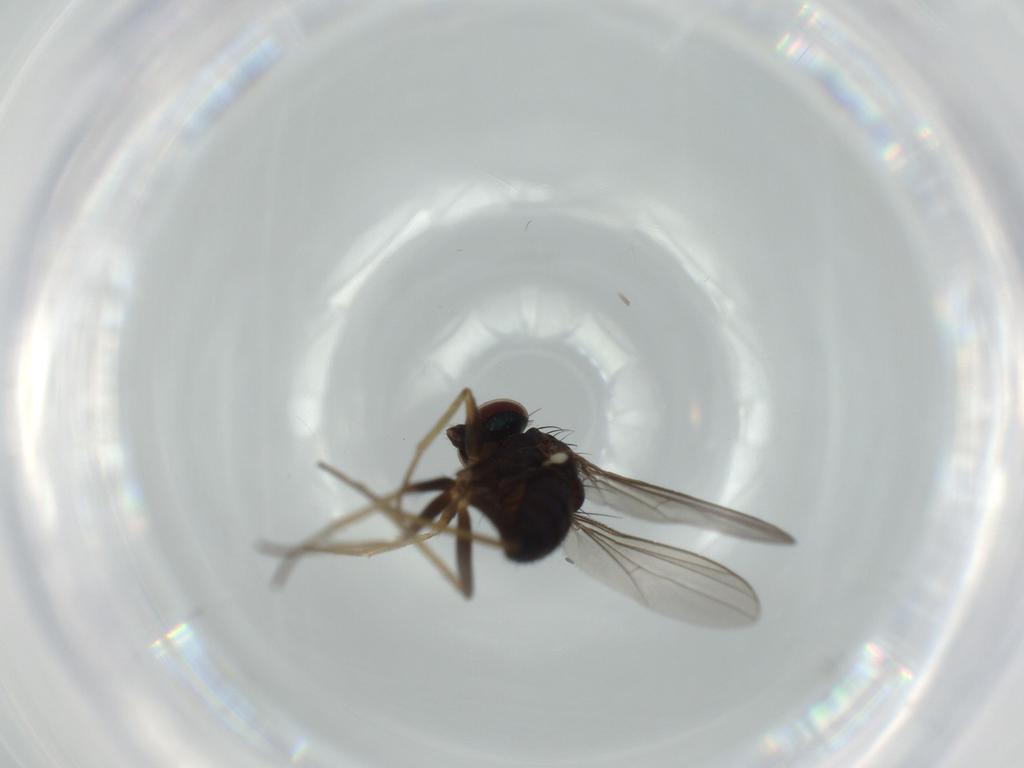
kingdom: Animalia
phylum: Arthropoda
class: Insecta
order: Diptera
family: Dolichopodidae
